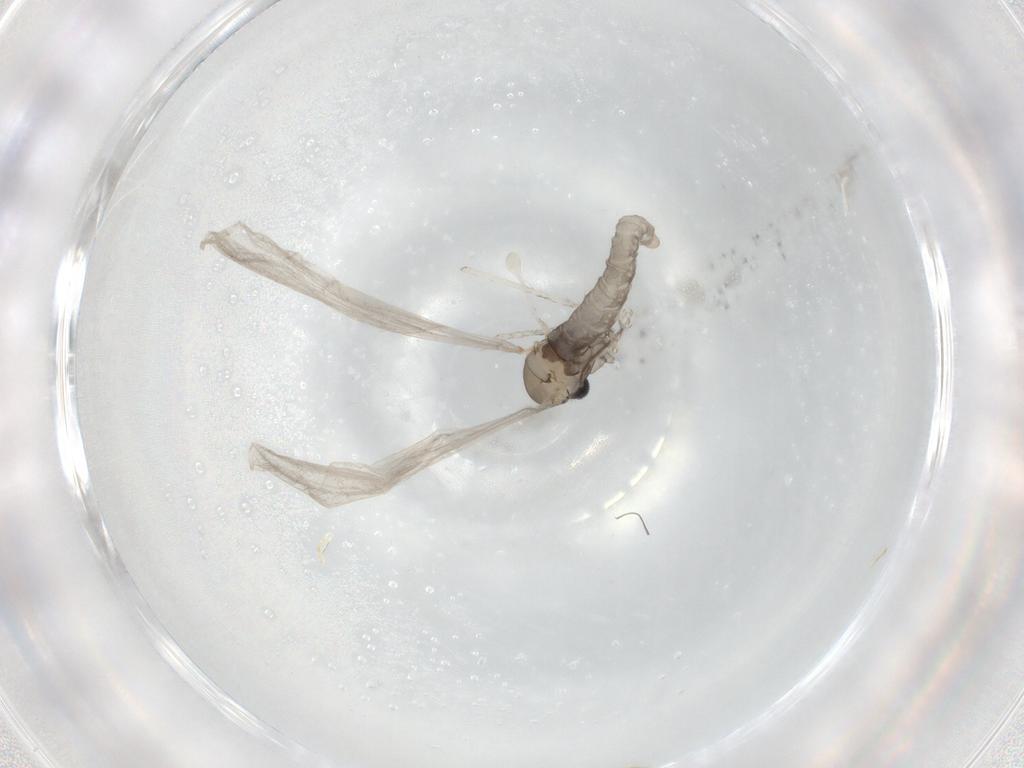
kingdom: Animalia
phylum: Arthropoda
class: Insecta
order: Diptera
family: Cecidomyiidae
